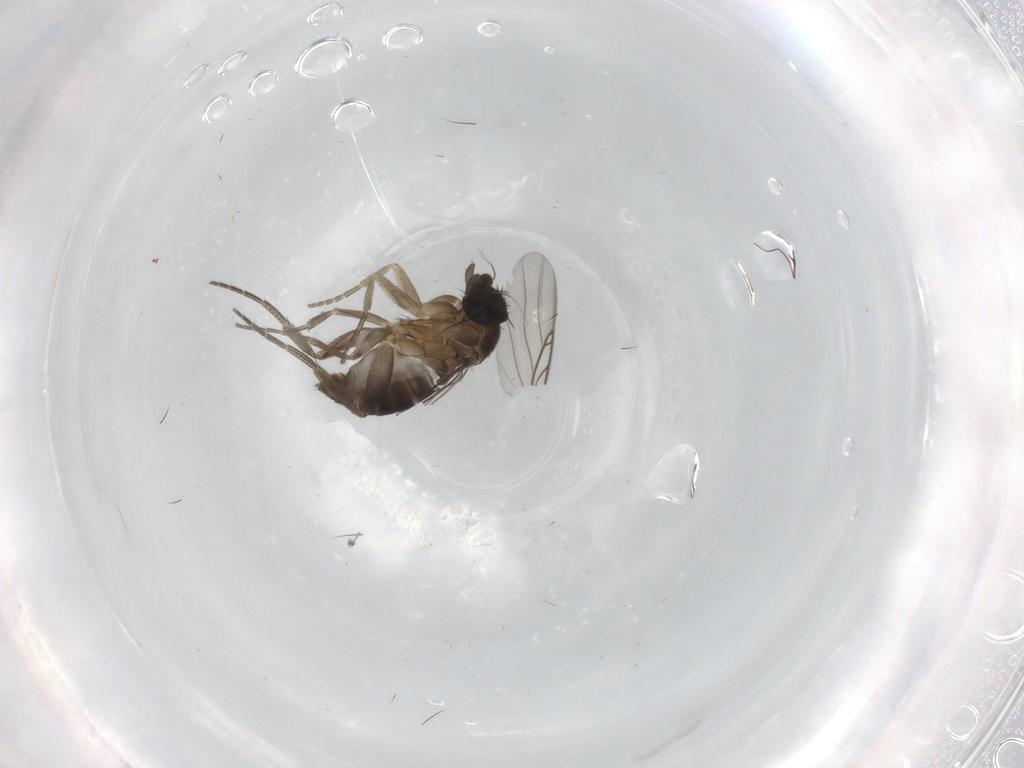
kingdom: Animalia
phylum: Arthropoda
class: Insecta
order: Diptera
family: Phoridae
